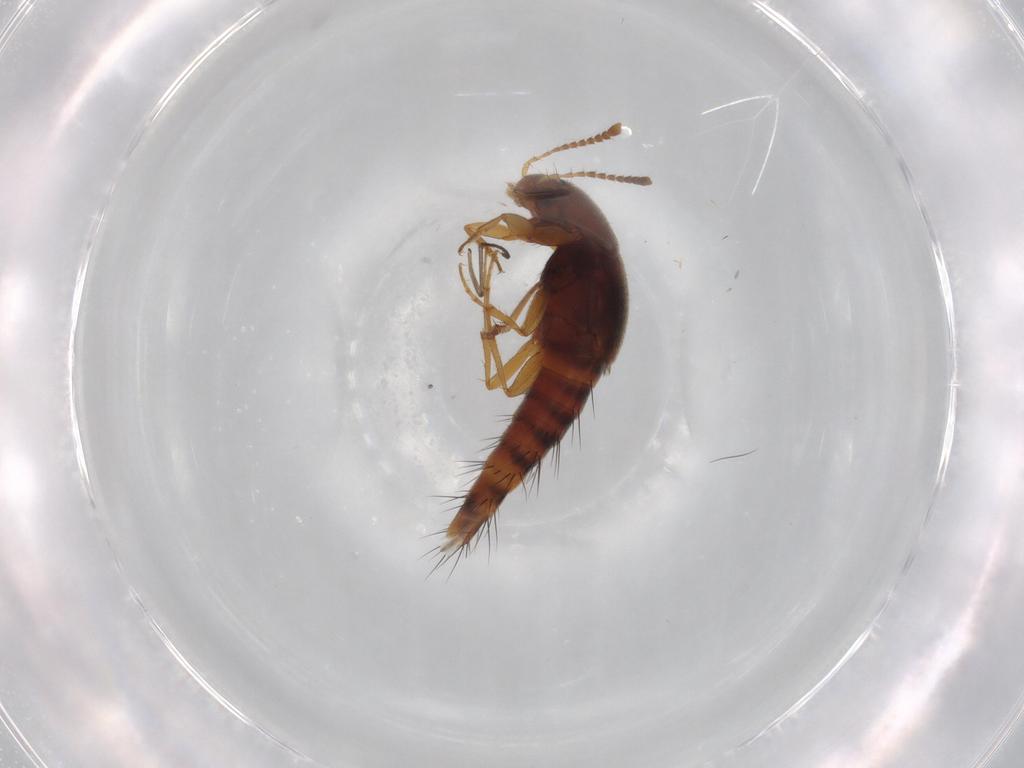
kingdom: Animalia
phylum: Arthropoda
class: Insecta
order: Coleoptera
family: Staphylinidae
